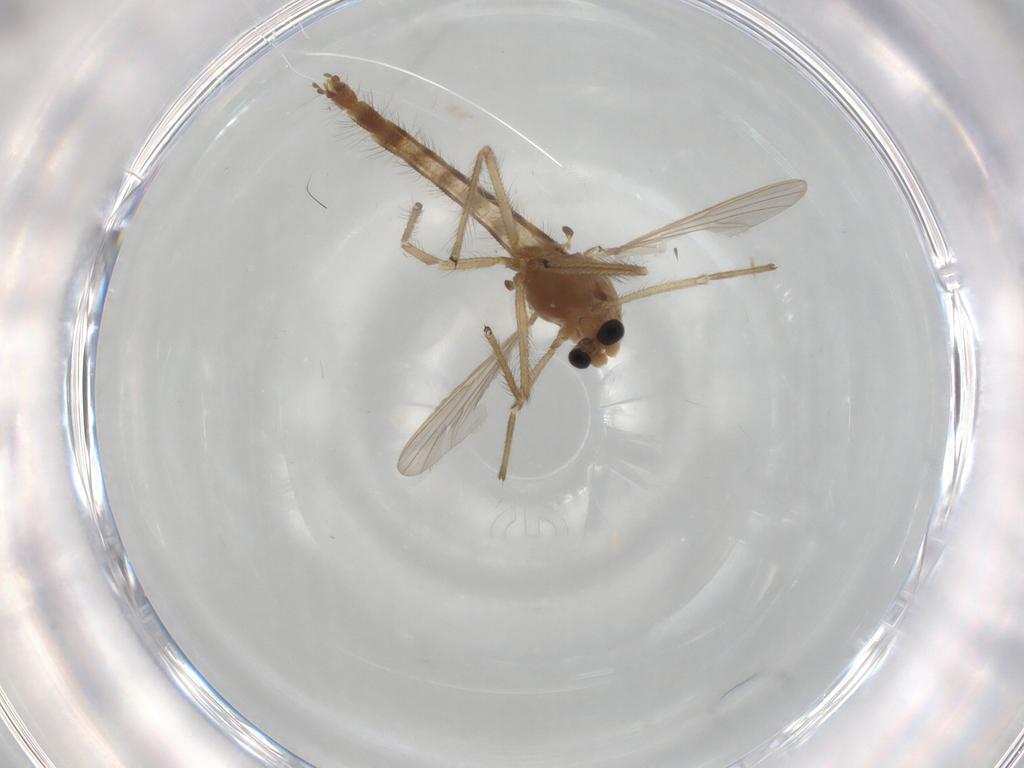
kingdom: Animalia
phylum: Arthropoda
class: Insecta
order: Diptera
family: Chironomidae
